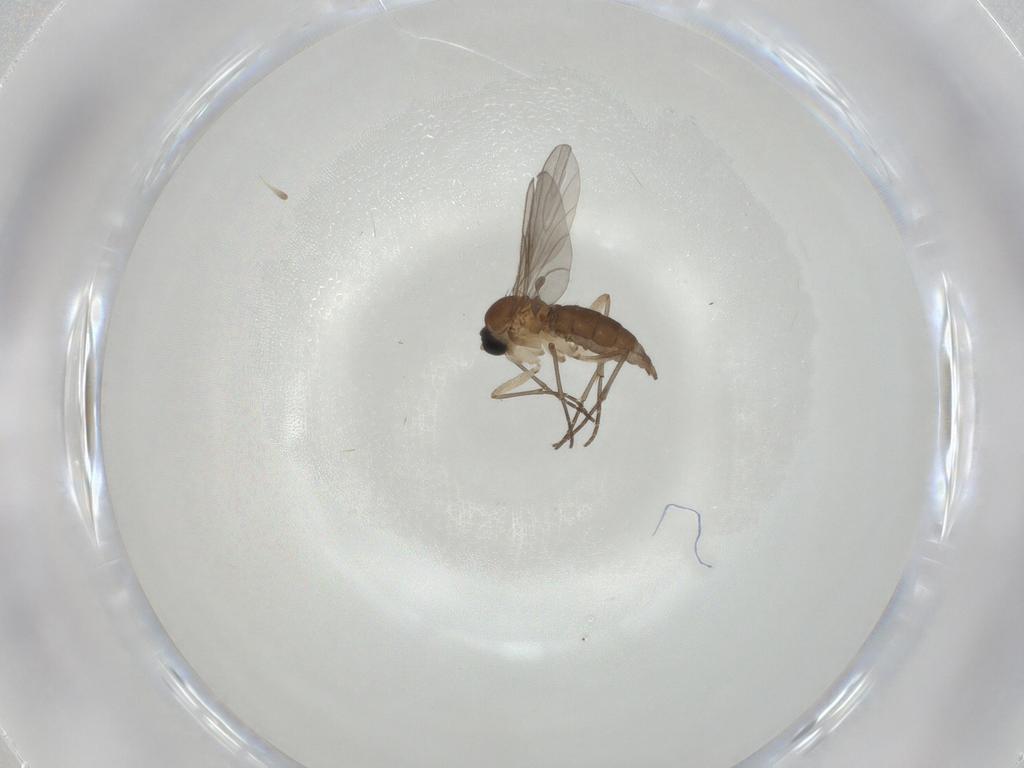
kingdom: Animalia
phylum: Arthropoda
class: Insecta
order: Diptera
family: Sciaridae
